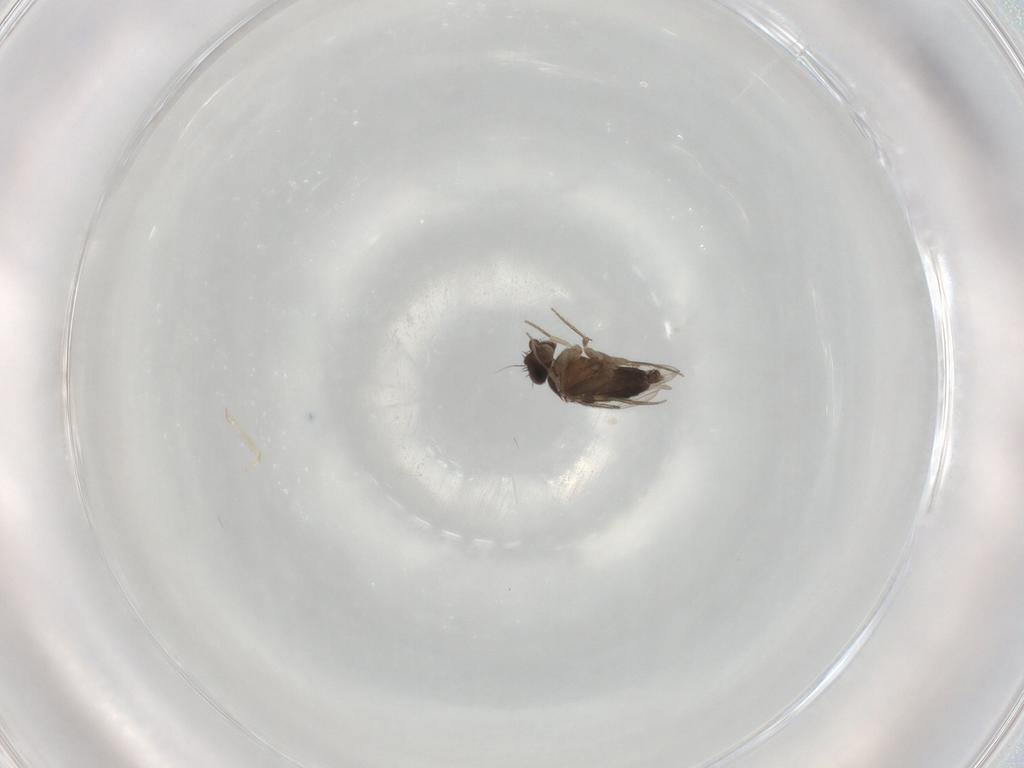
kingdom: Animalia
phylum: Arthropoda
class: Insecta
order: Diptera
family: Phoridae
